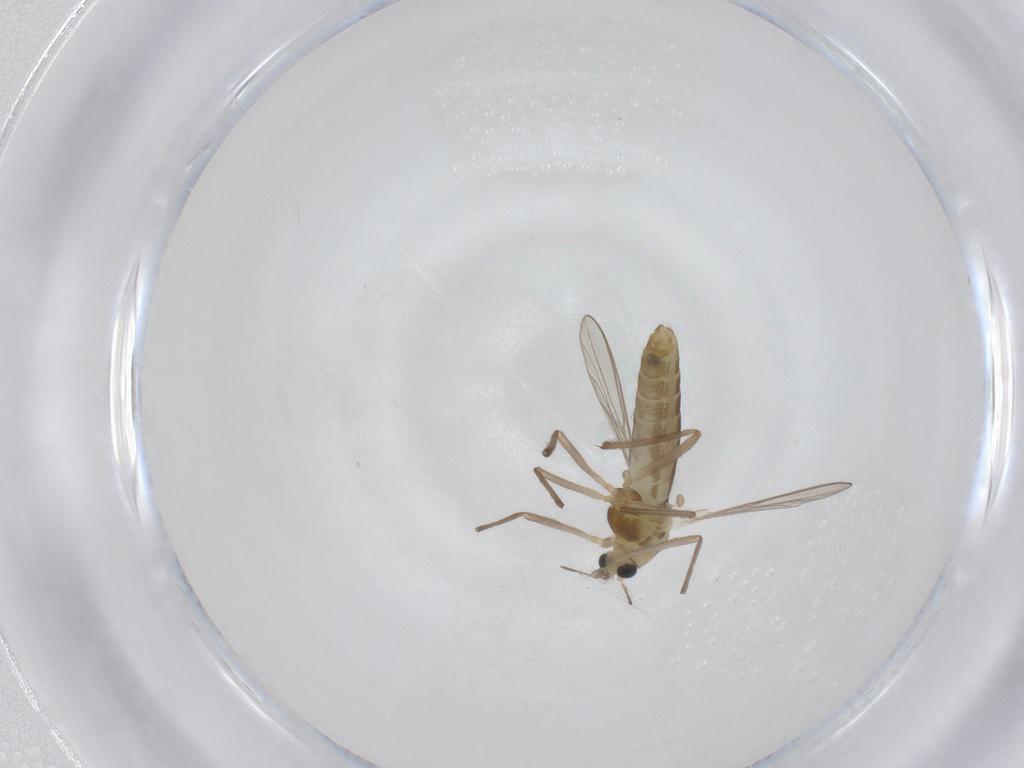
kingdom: Animalia
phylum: Arthropoda
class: Insecta
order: Diptera
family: Chironomidae
